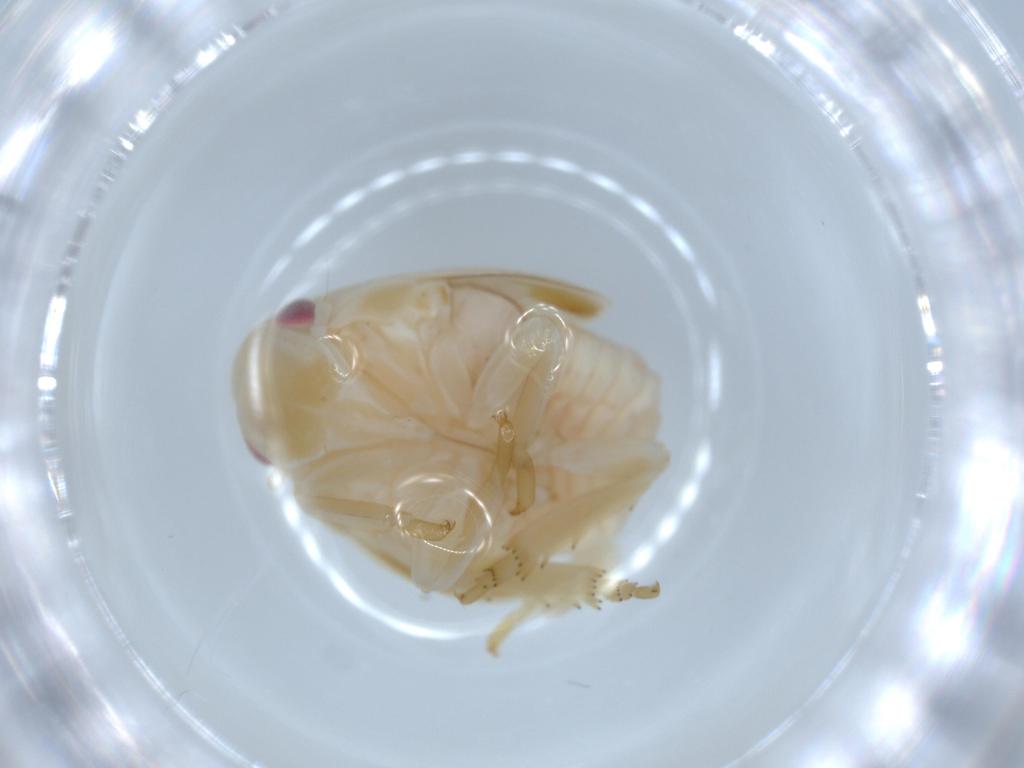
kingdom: Animalia
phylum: Arthropoda
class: Insecta
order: Hemiptera
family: Flatidae
